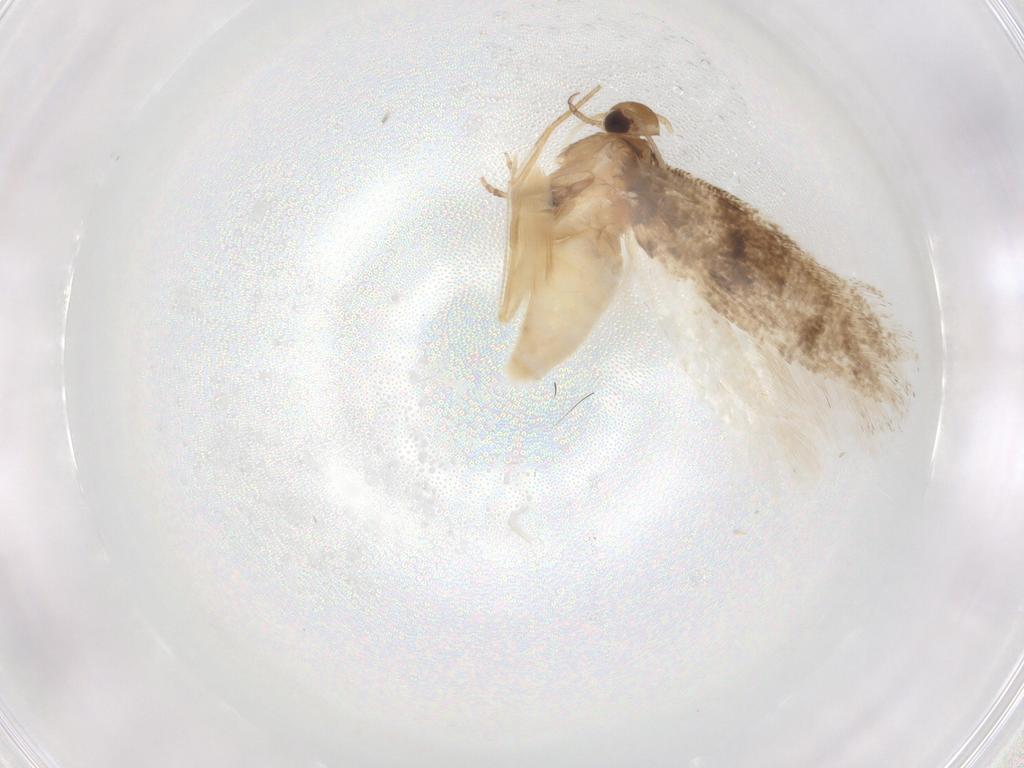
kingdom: Animalia
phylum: Arthropoda
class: Insecta
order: Lepidoptera
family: Gelechiidae
